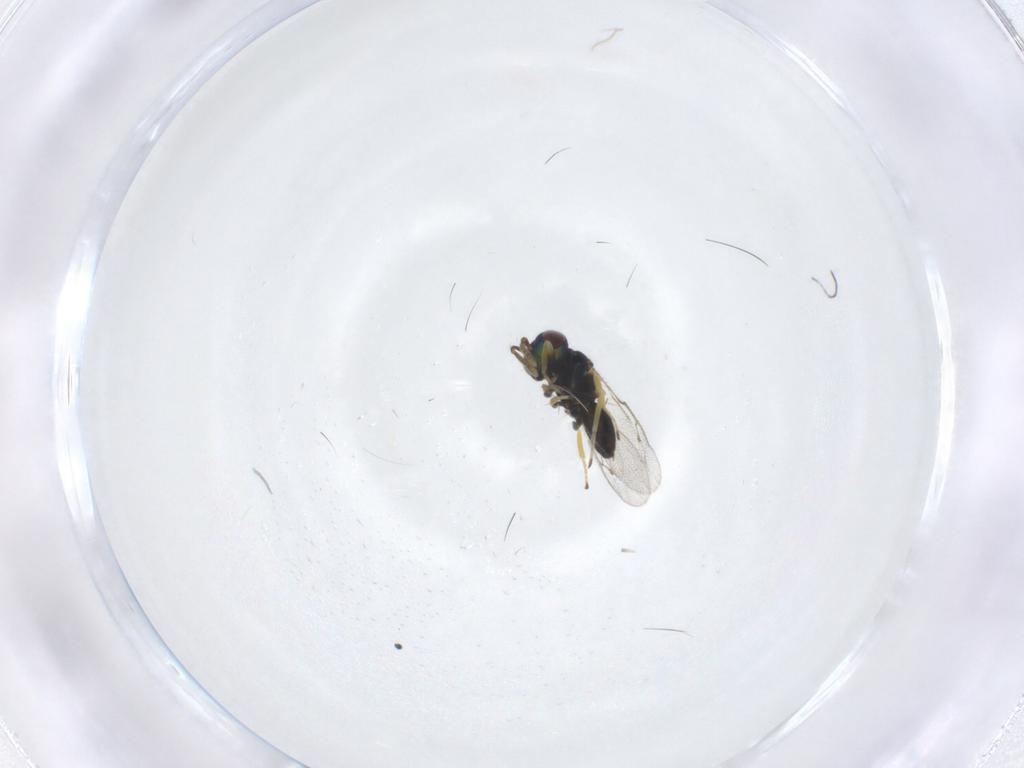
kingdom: Animalia
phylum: Arthropoda
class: Insecta
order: Hymenoptera
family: Pteromalidae
